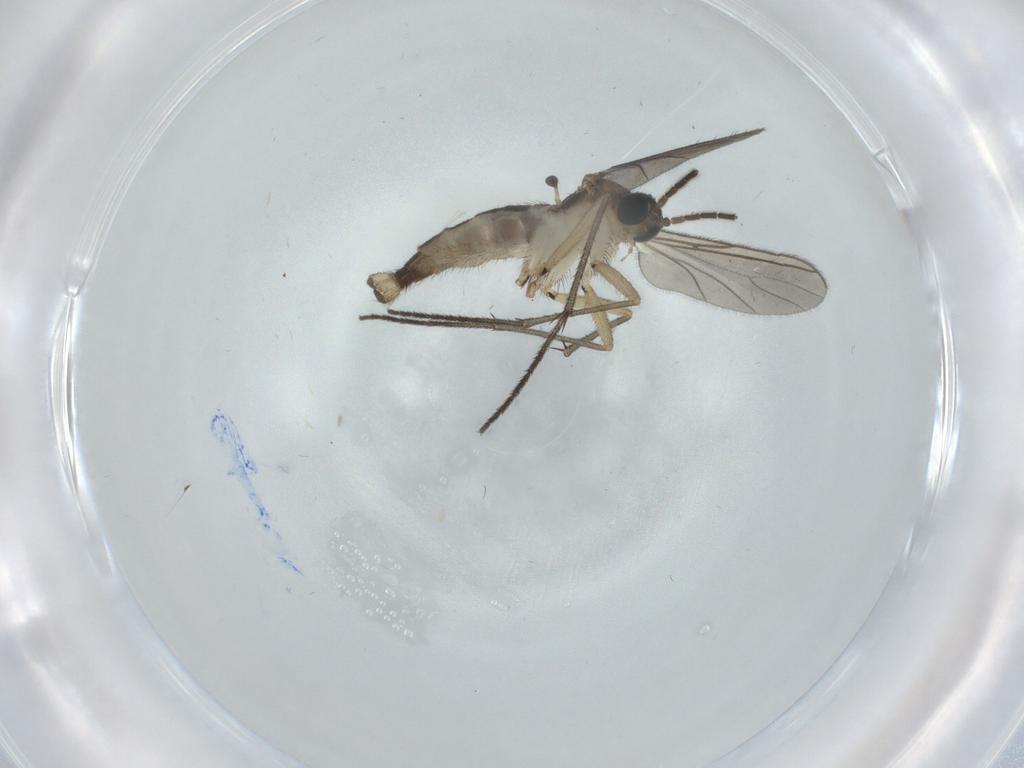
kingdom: Animalia
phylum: Arthropoda
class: Insecta
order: Diptera
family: Sciaridae
